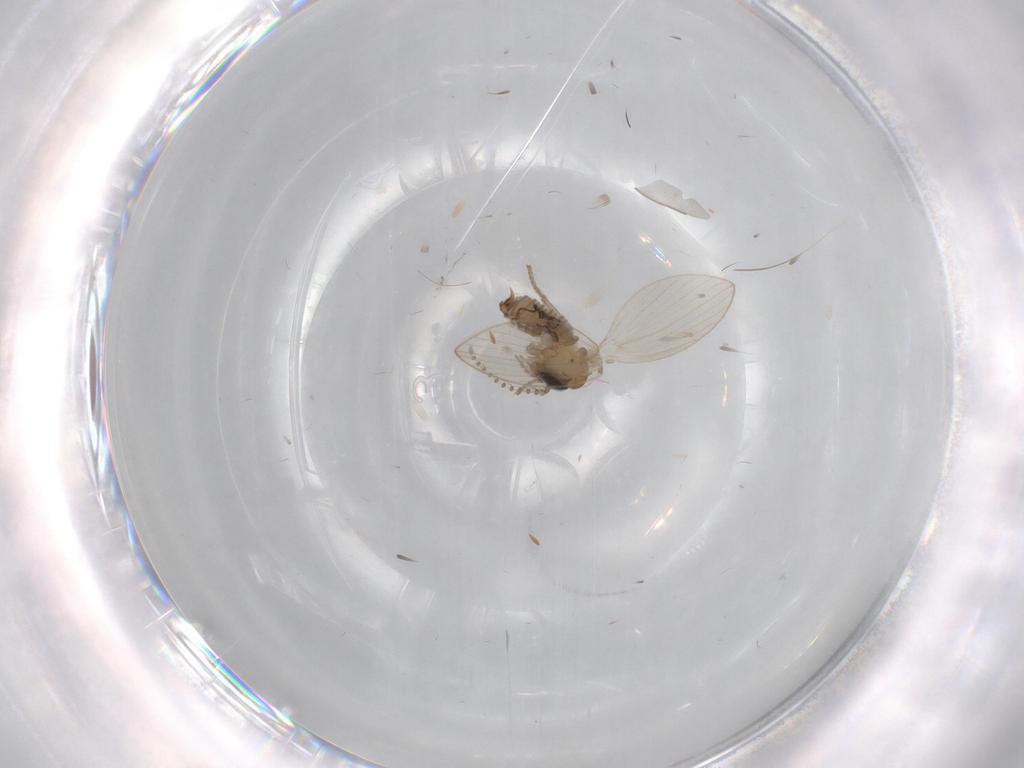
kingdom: Animalia
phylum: Arthropoda
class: Insecta
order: Diptera
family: Psychodidae
